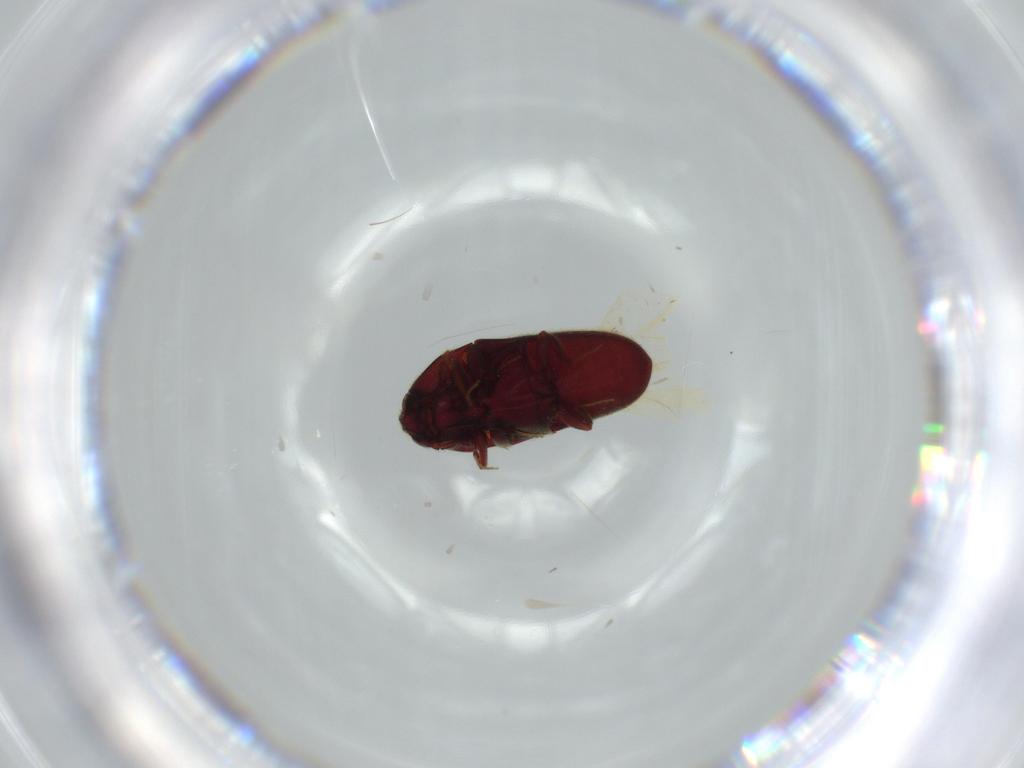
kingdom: Animalia
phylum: Arthropoda
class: Insecta
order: Coleoptera
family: Throscidae
